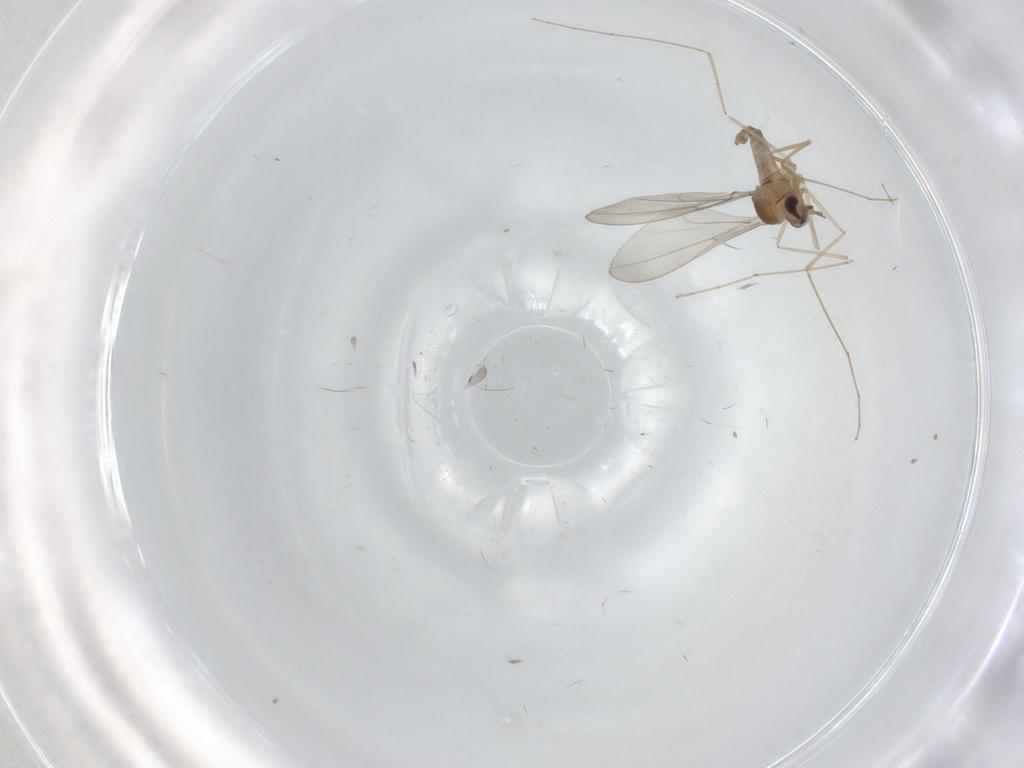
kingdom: Animalia
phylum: Arthropoda
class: Insecta
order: Diptera
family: Cecidomyiidae
